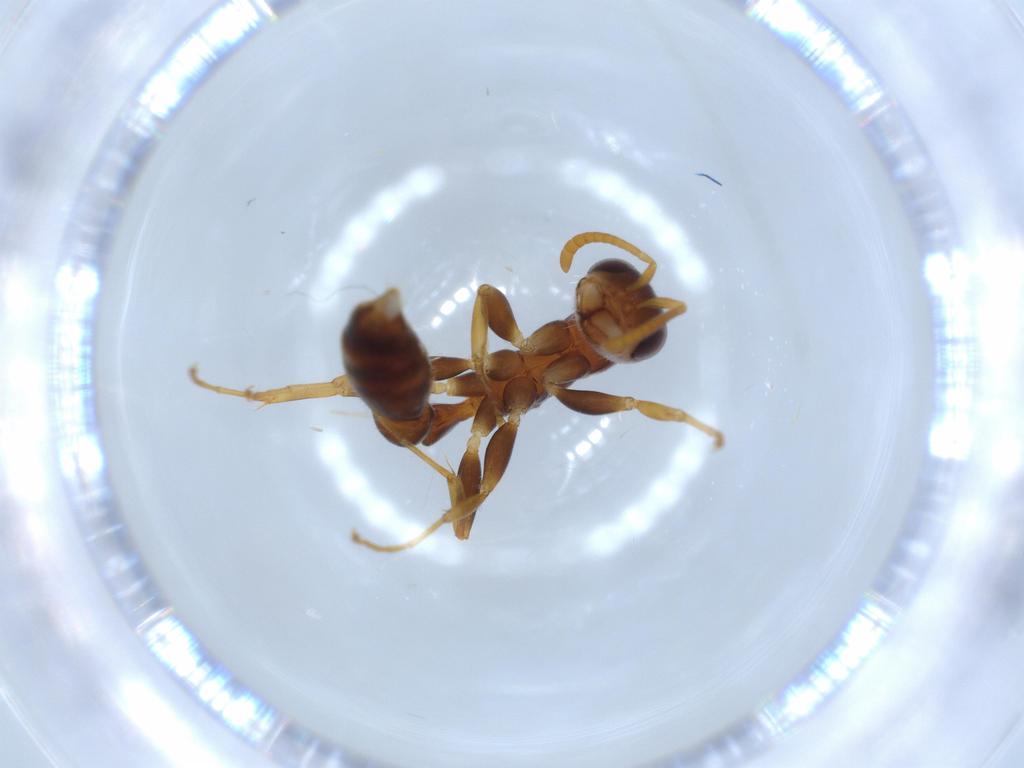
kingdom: Animalia
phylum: Arthropoda
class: Insecta
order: Hymenoptera
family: Formicidae
